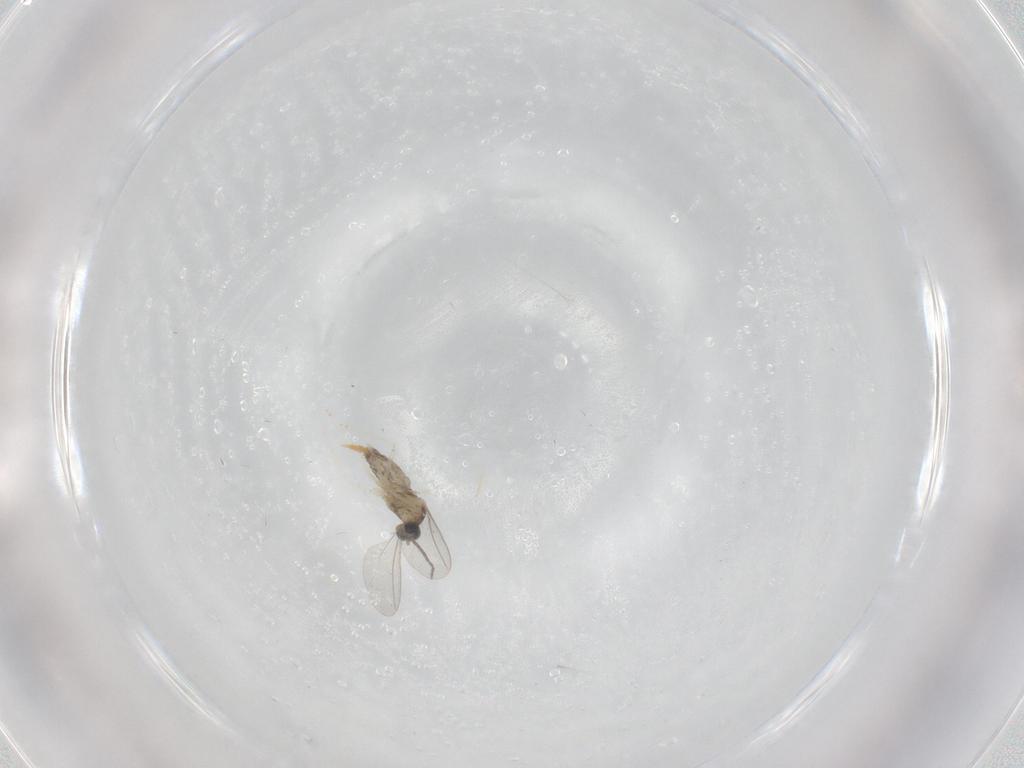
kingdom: Animalia
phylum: Arthropoda
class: Insecta
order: Diptera
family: Cecidomyiidae
